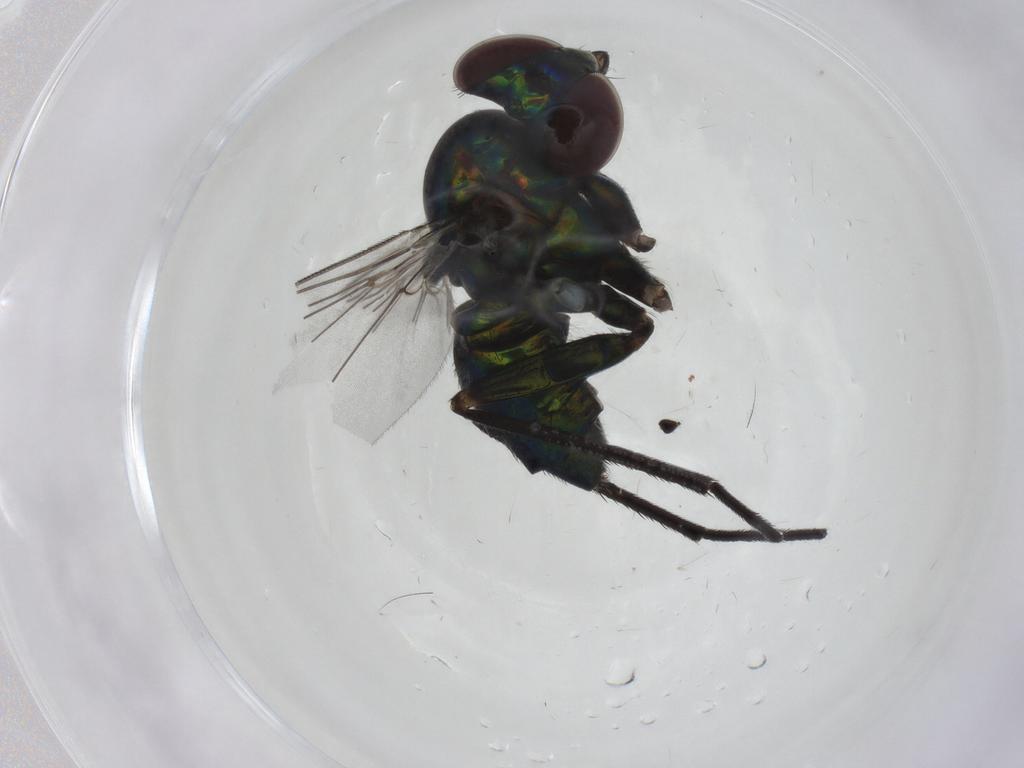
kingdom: Animalia
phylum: Arthropoda
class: Insecta
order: Diptera
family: Dolichopodidae
